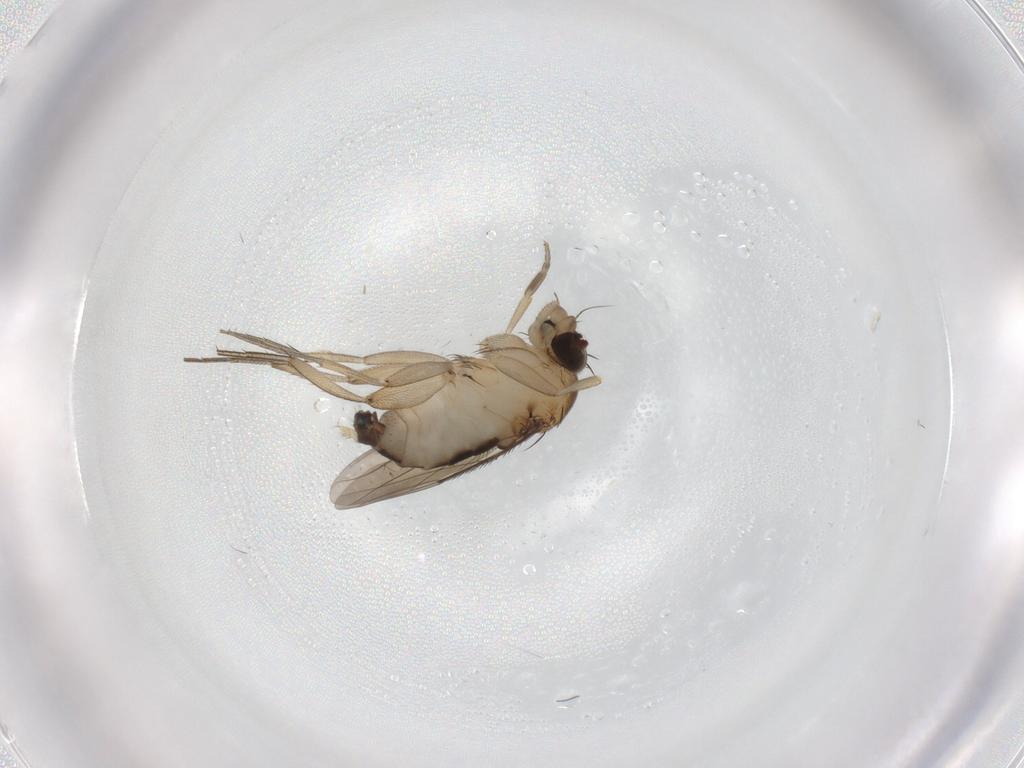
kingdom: Animalia
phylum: Arthropoda
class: Insecta
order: Diptera
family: Phoridae
